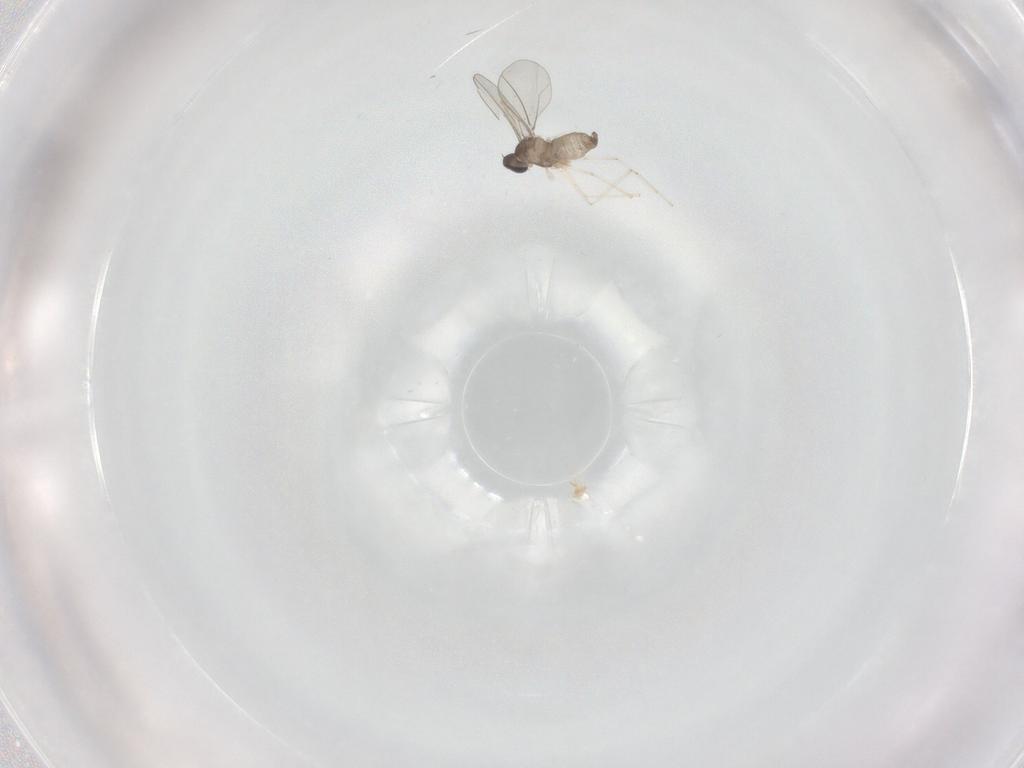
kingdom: Animalia
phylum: Arthropoda
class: Insecta
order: Diptera
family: Cecidomyiidae
